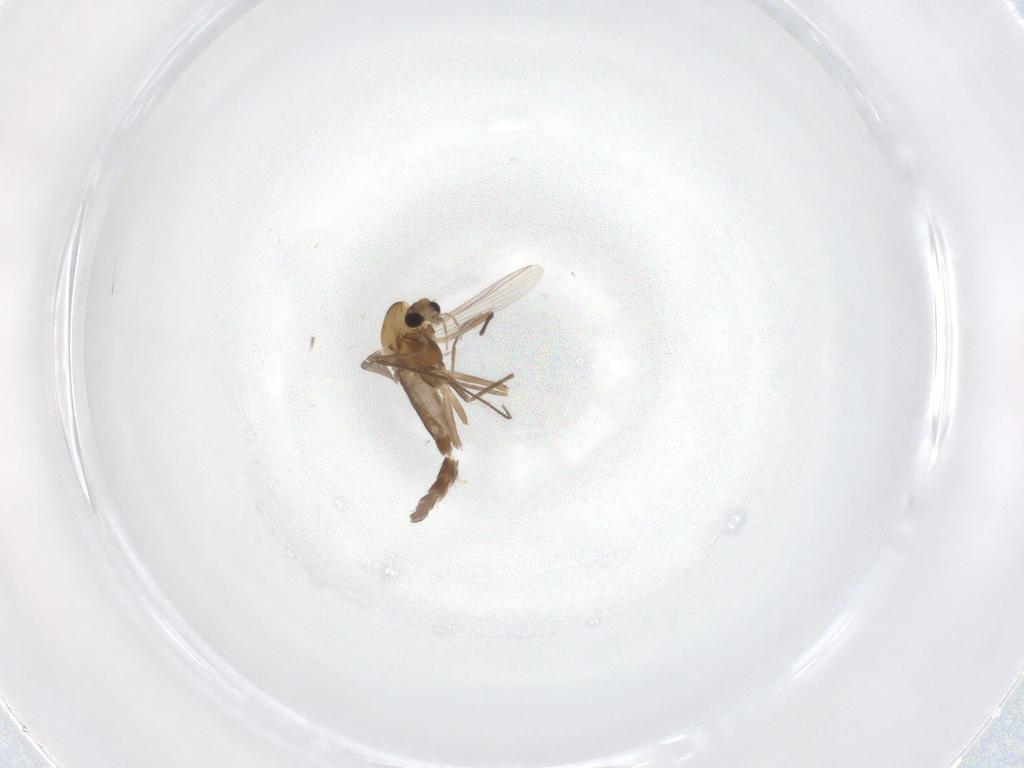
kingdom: Animalia
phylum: Arthropoda
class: Insecta
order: Diptera
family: Chironomidae
